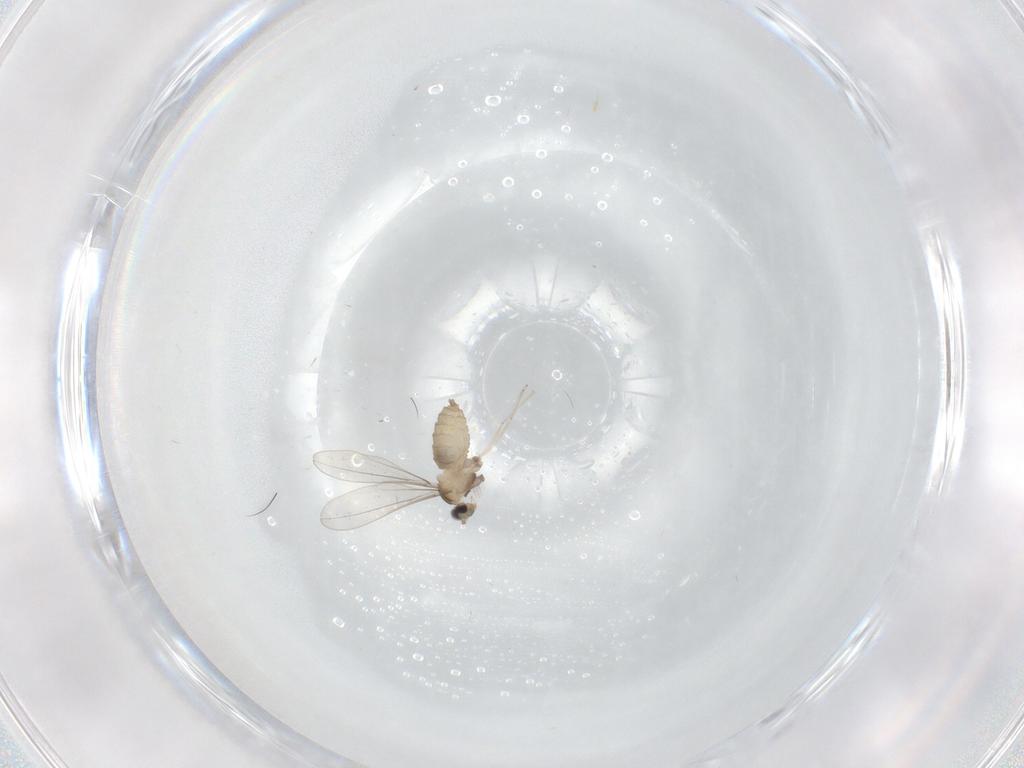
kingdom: Animalia
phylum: Arthropoda
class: Insecta
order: Diptera
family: Cecidomyiidae
